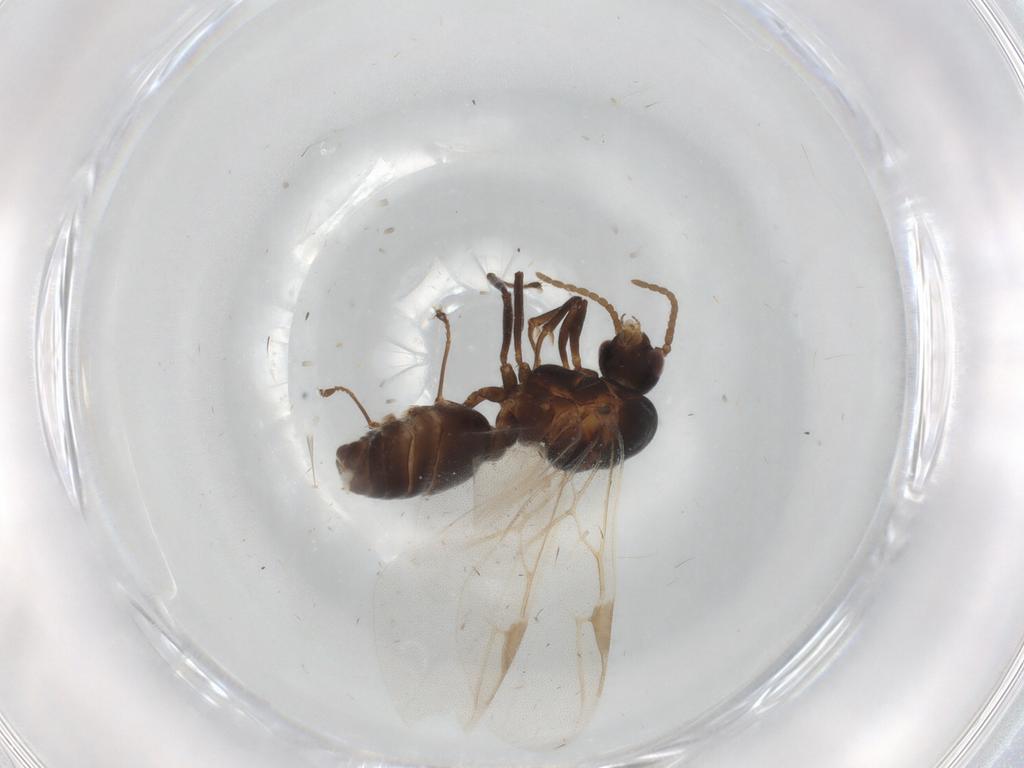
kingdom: Animalia
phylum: Arthropoda
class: Insecta
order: Hymenoptera
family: Formicidae
